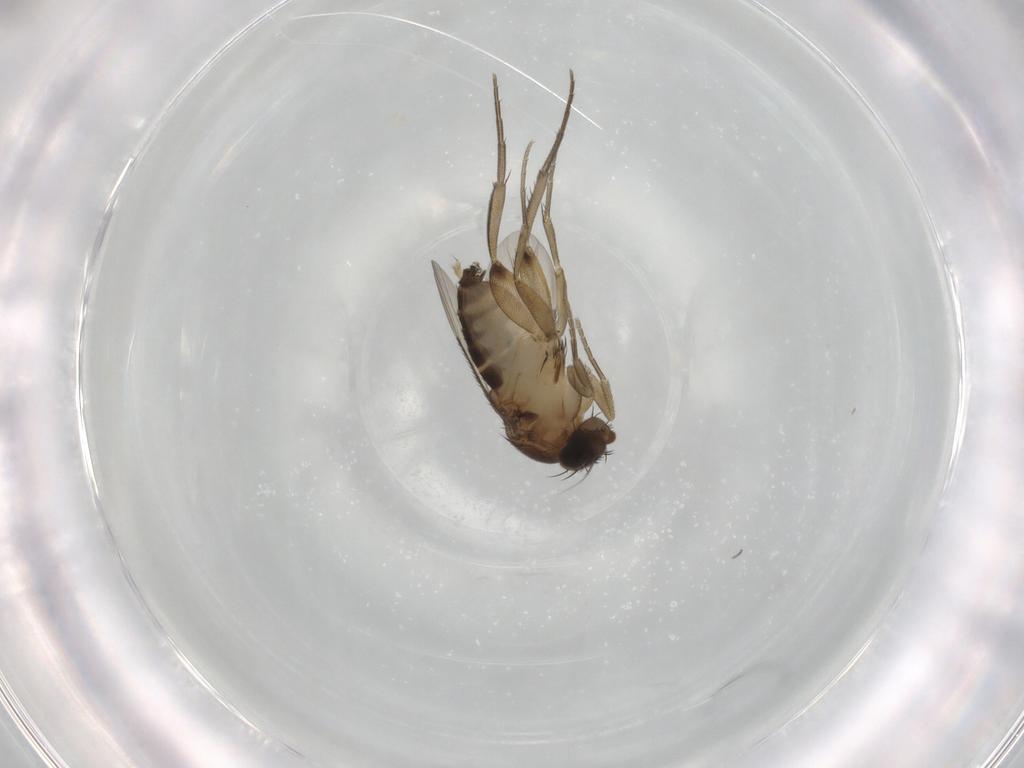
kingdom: Animalia
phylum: Arthropoda
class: Insecta
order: Diptera
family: Phoridae
